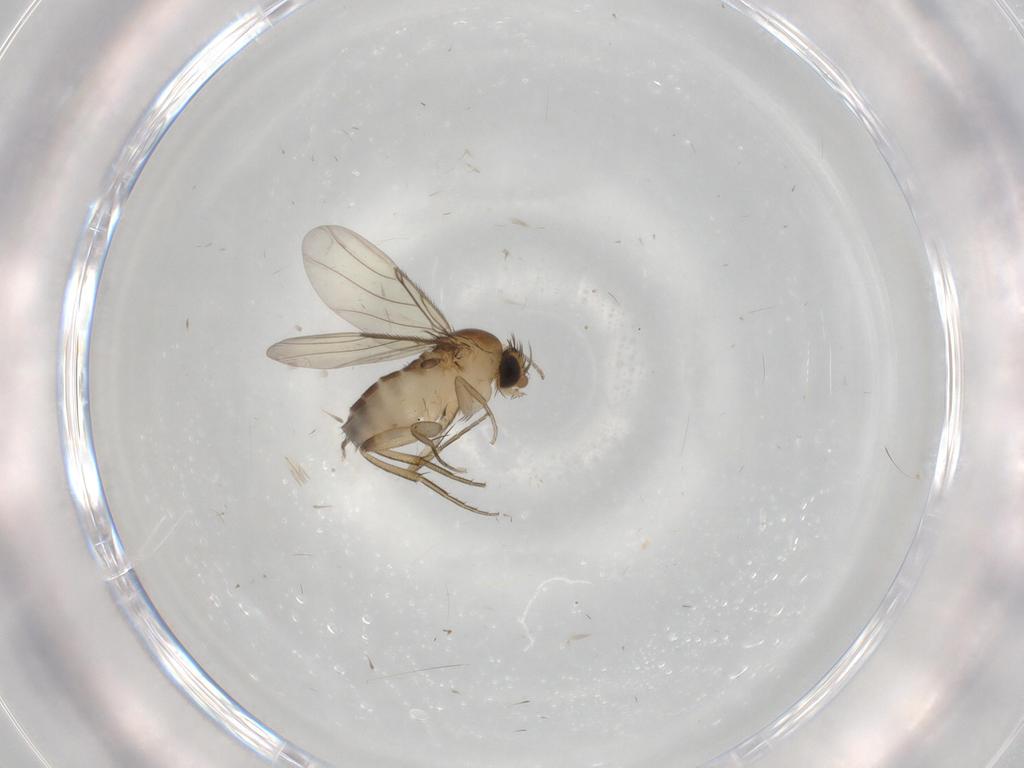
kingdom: Animalia
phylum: Arthropoda
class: Insecta
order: Diptera
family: Phoridae
